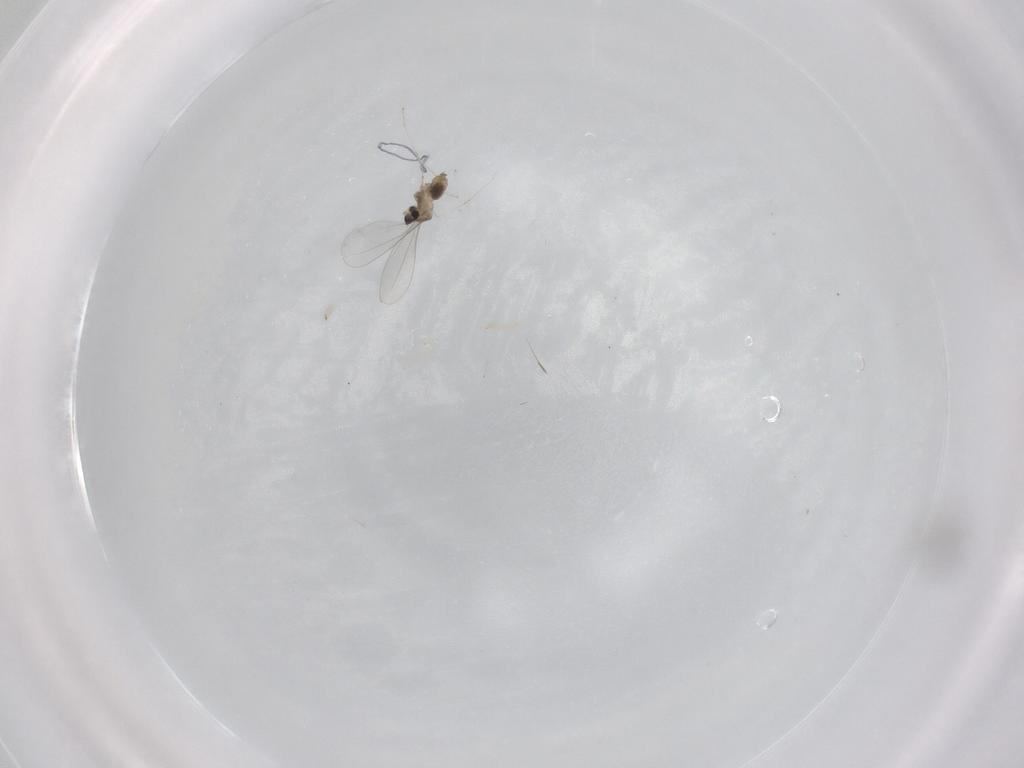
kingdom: Animalia
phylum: Arthropoda
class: Insecta
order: Diptera
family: Cecidomyiidae
